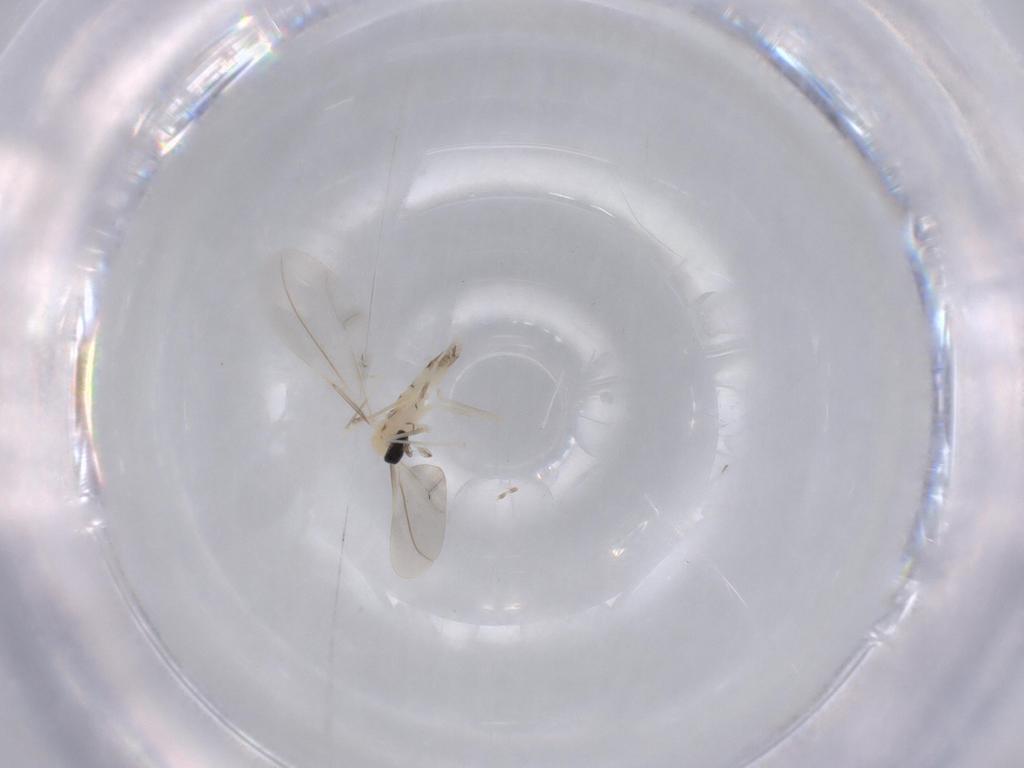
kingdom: Animalia
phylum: Arthropoda
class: Insecta
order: Diptera
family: Cecidomyiidae
